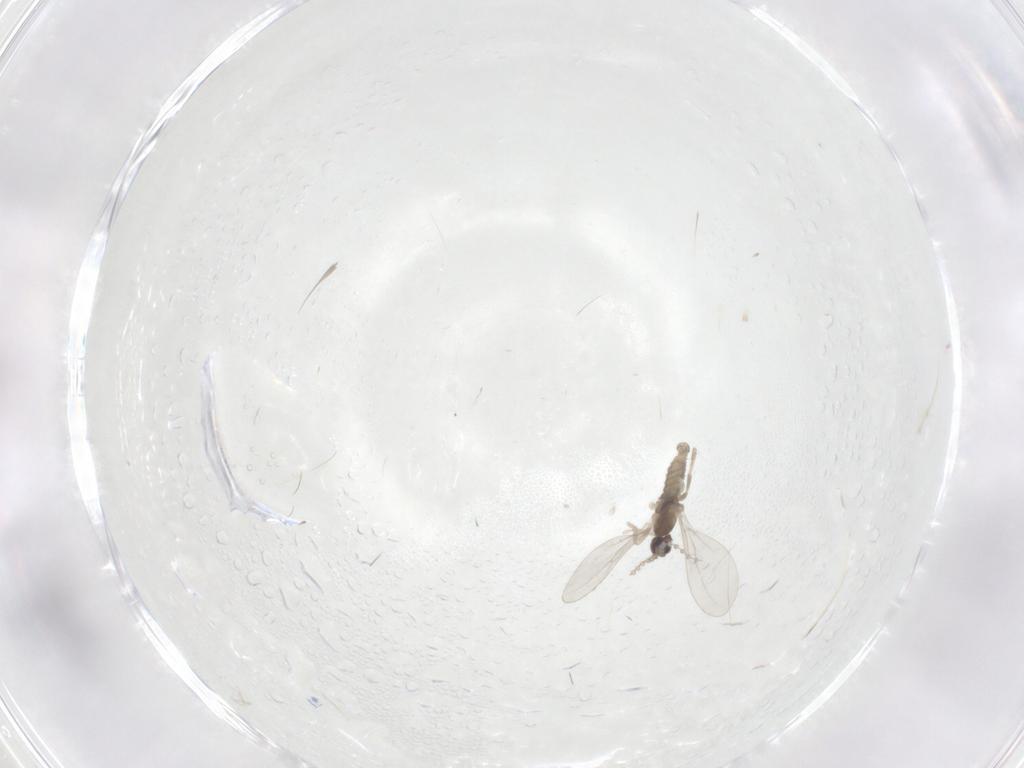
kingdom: Animalia
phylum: Arthropoda
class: Insecta
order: Diptera
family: Cecidomyiidae
